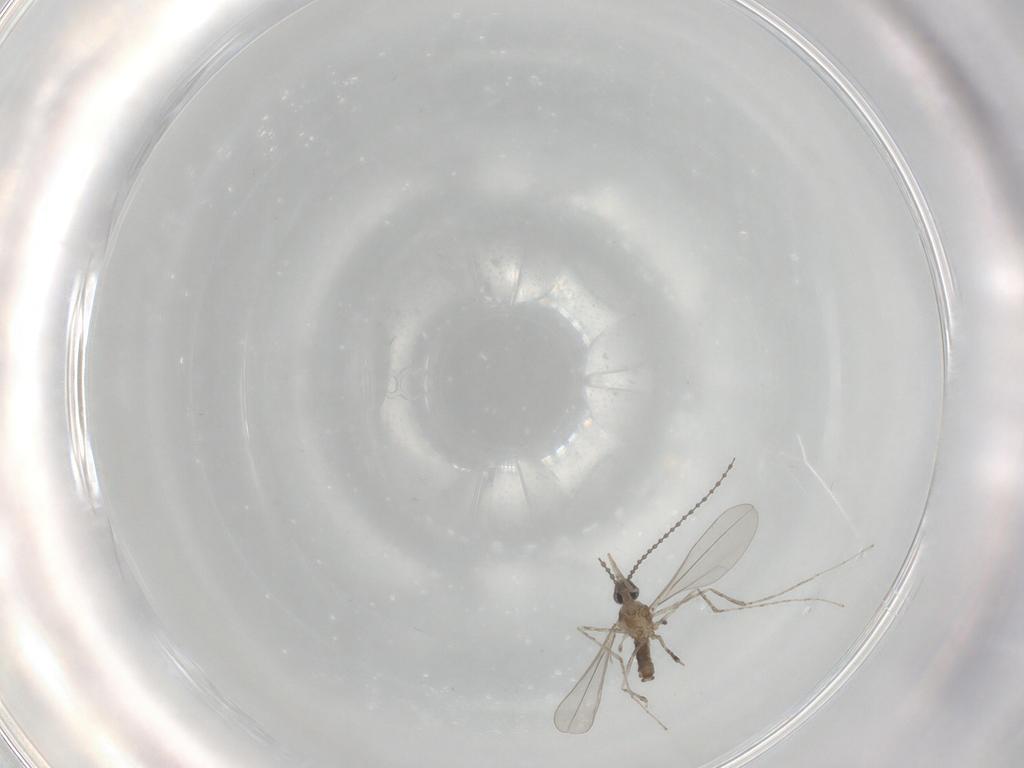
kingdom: Animalia
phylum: Arthropoda
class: Insecta
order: Diptera
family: Cecidomyiidae
